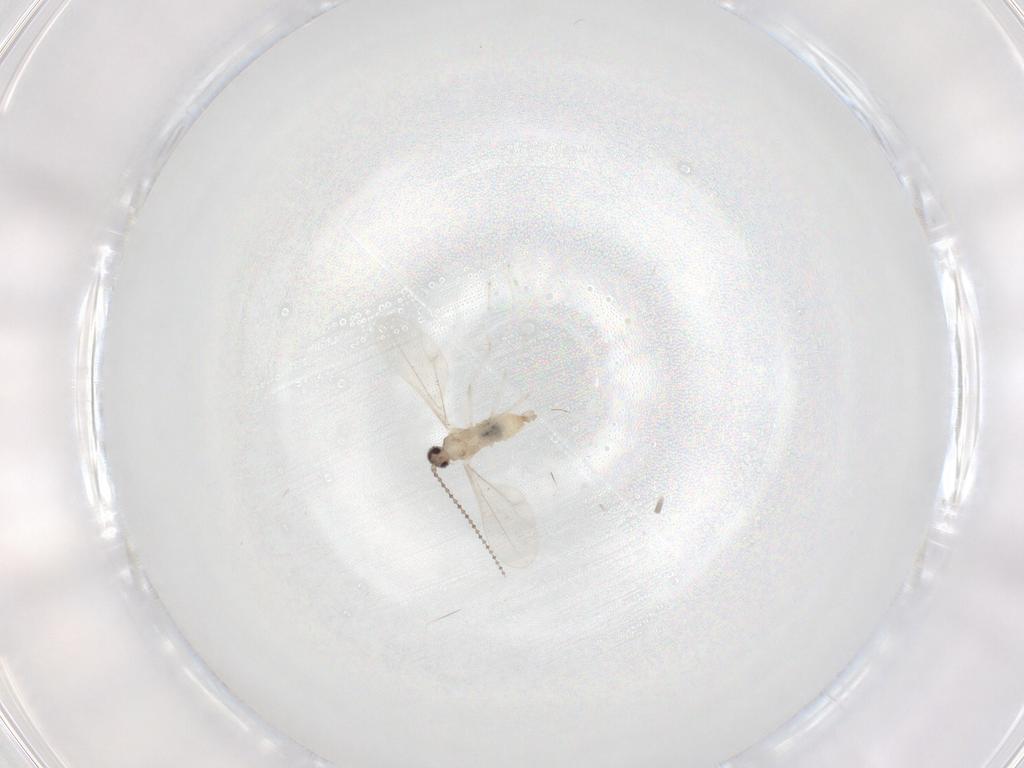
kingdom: Animalia
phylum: Arthropoda
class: Insecta
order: Diptera
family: Cecidomyiidae
